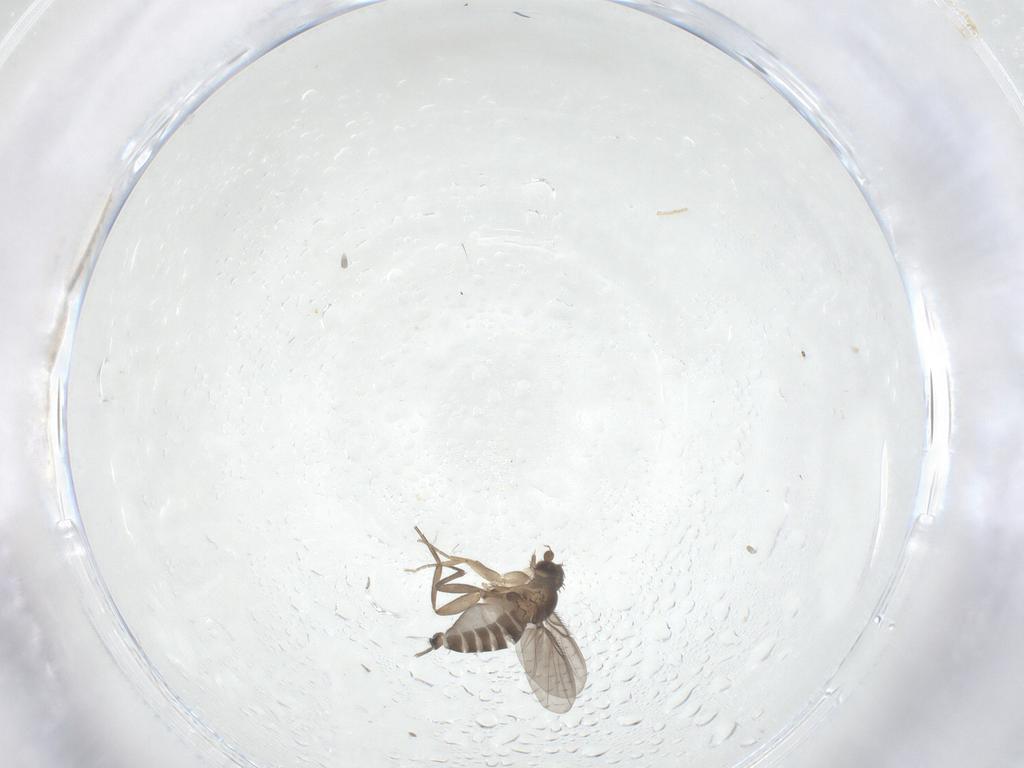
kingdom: Animalia
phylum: Arthropoda
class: Insecta
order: Diptera
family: Phoridae
